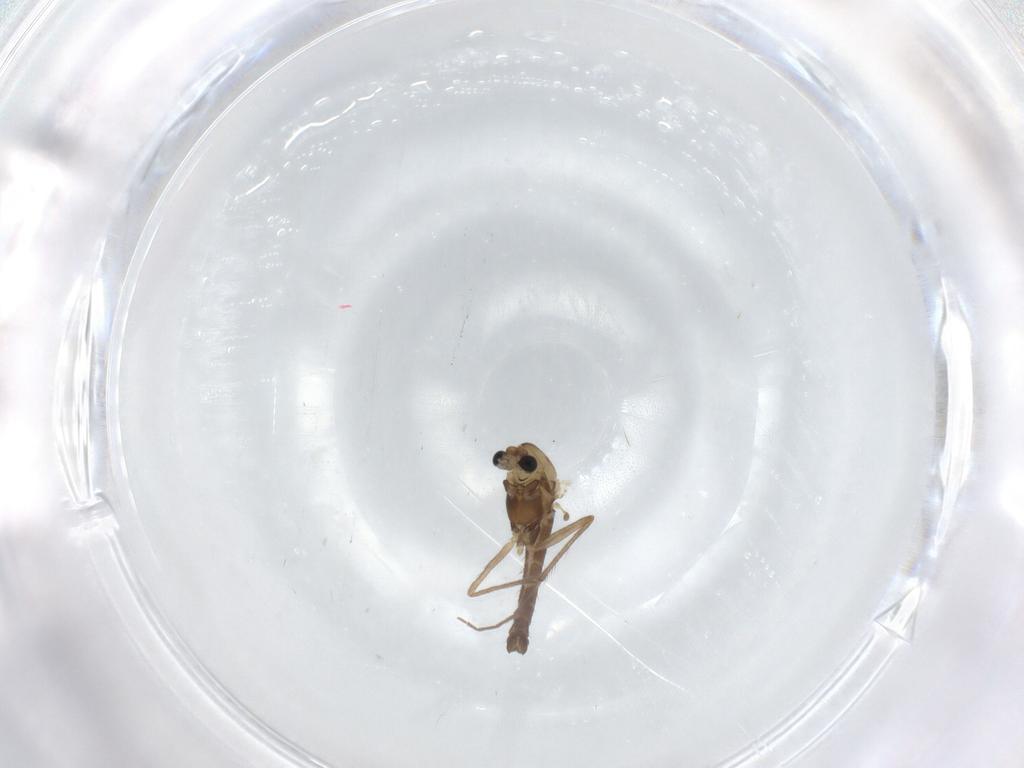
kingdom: Animalia
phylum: Arthropoda
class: Insecta
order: Diptera
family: Chironomidae
